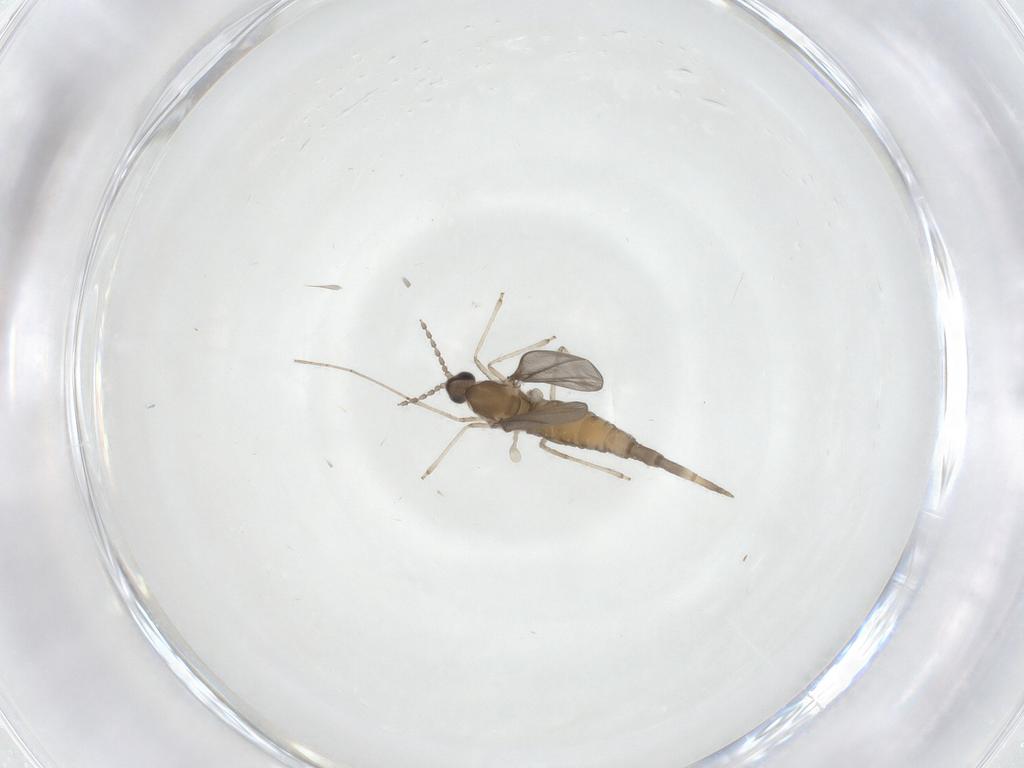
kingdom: Animalia
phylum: Arthropoda
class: Insecta
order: Diptera
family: Cecidomyiidae
